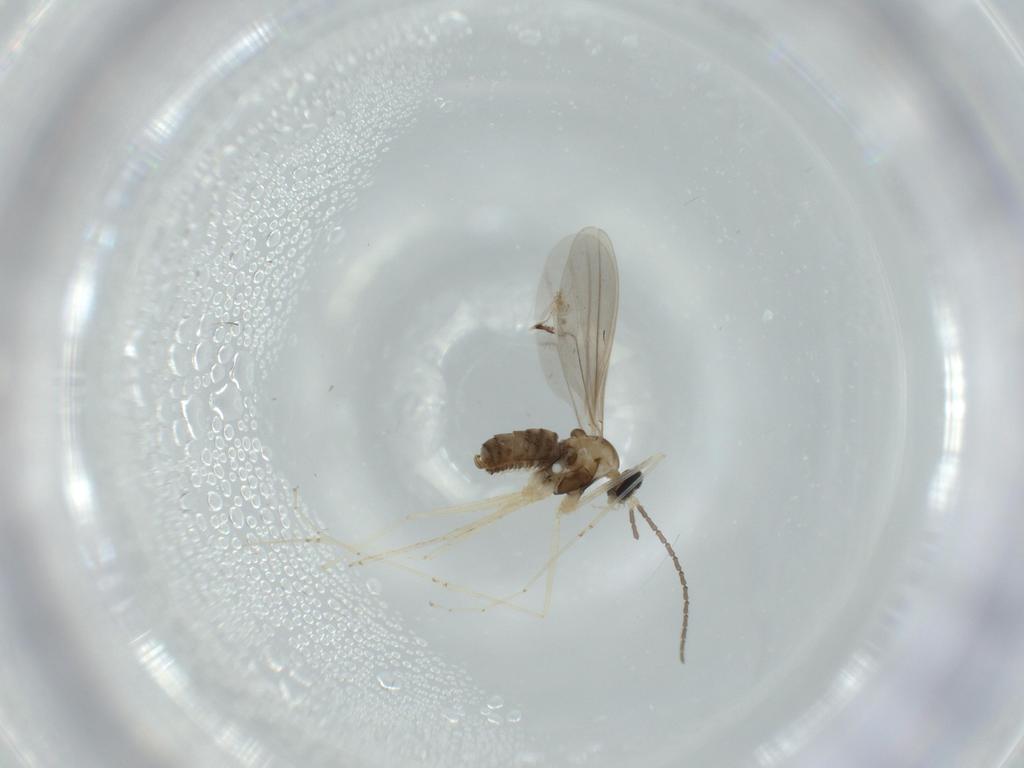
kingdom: Animalia
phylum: Arthropoda
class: Insecta
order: Diptera
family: Cecidomyiidae
